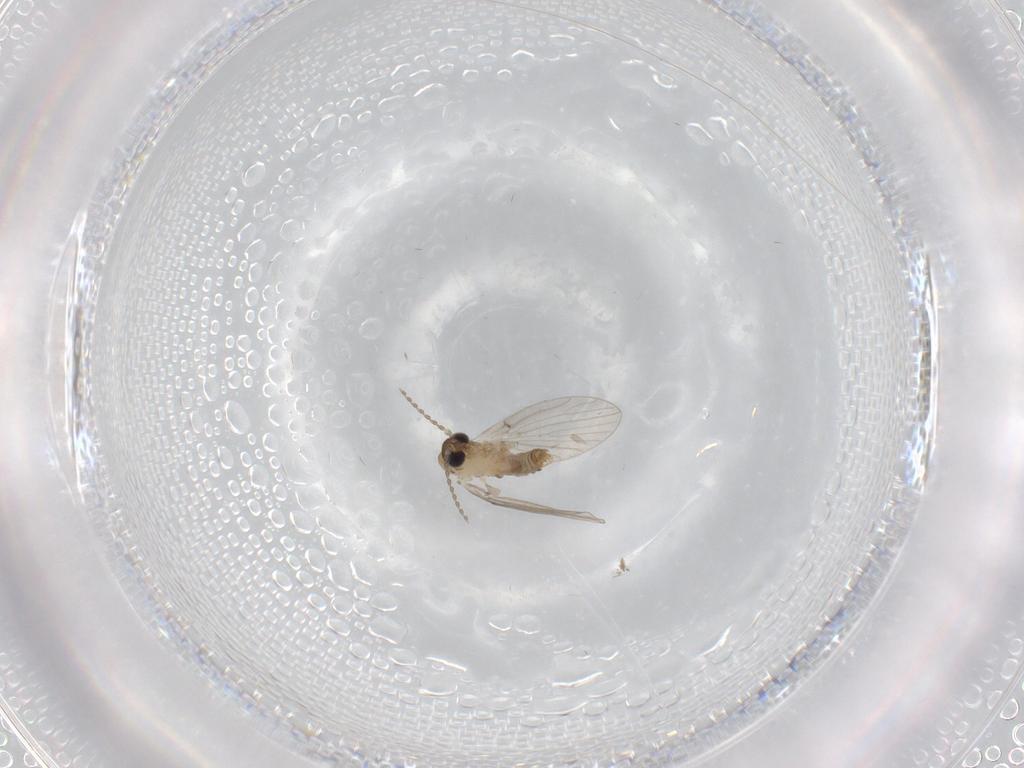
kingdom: Animalia
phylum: Arthropoda
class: Insecta
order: Diptera
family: Psychodidae
